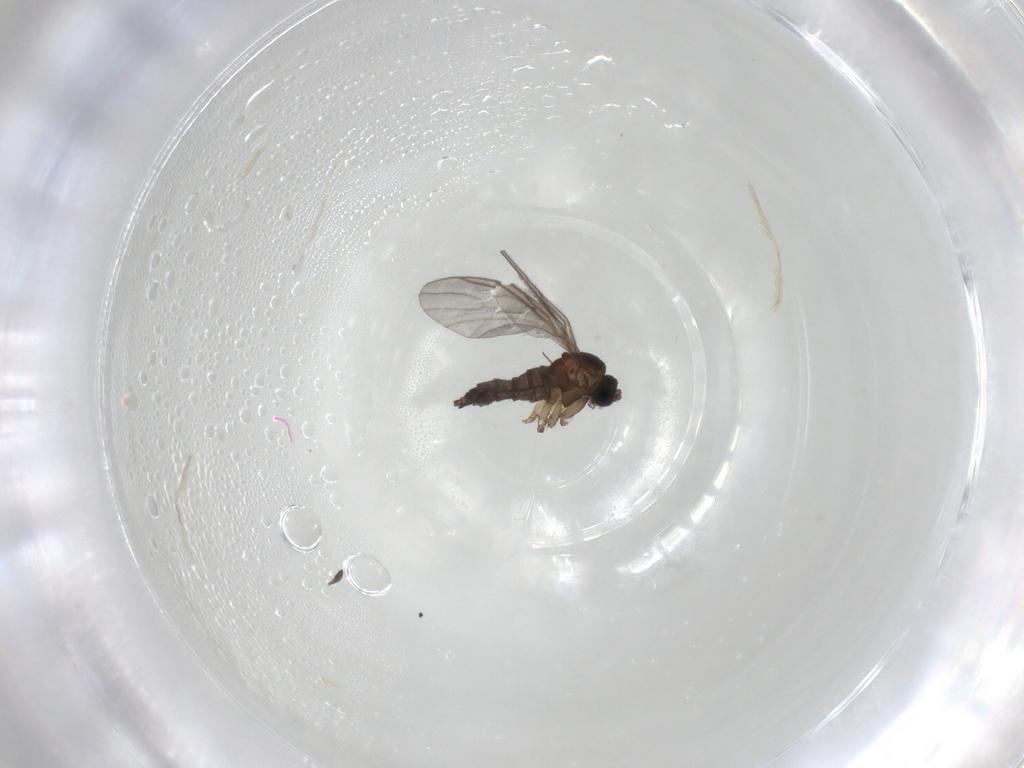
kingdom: Animalia
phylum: Arthropoda
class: Insecta
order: Diptera
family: Sciaridae
